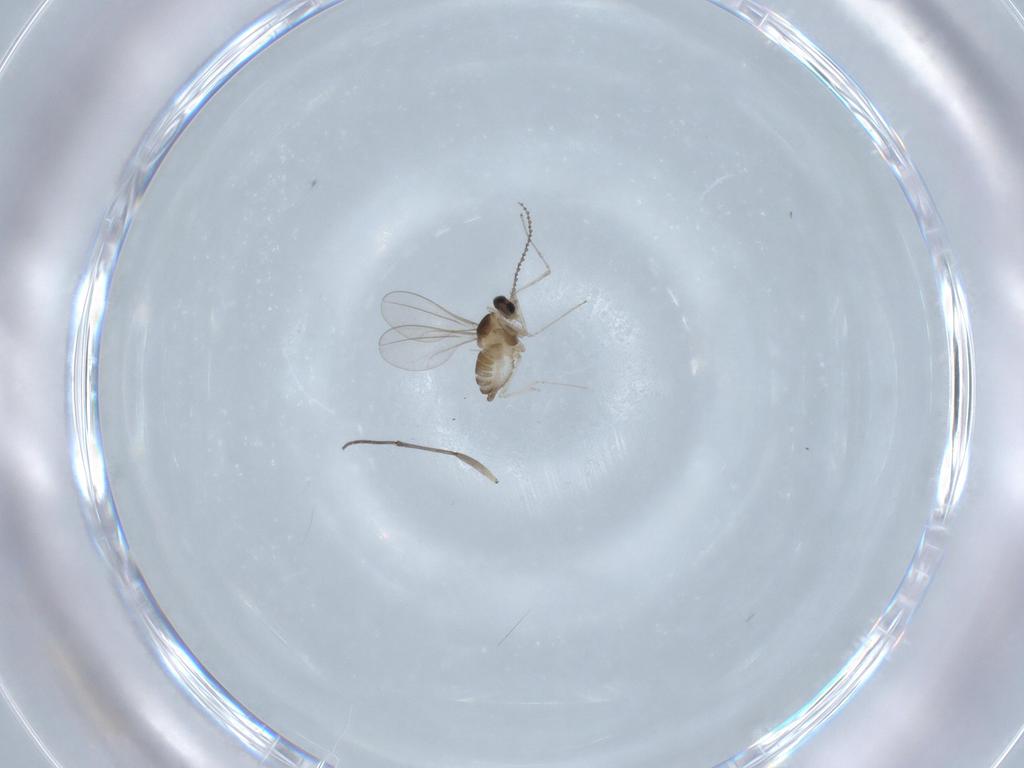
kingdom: Animalia
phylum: Arthropoda
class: Insecta
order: Diptera
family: Cecidomyiidae
